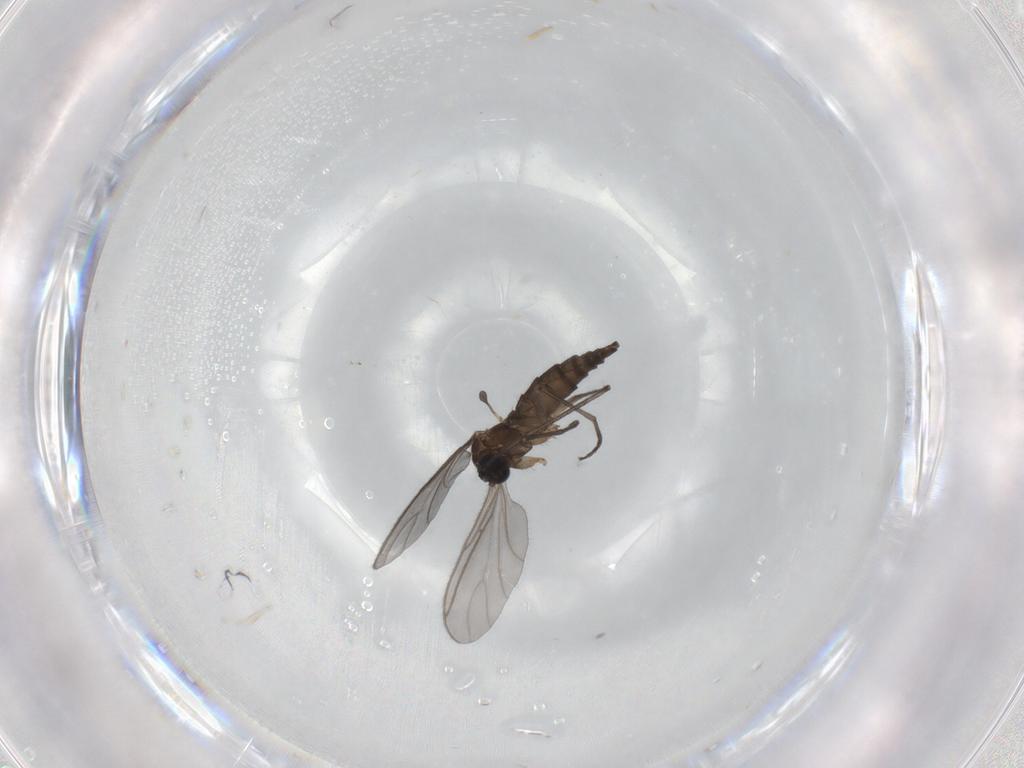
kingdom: Animalia
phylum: Arthropoda
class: Insecta
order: Diptera
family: Sciaridae
